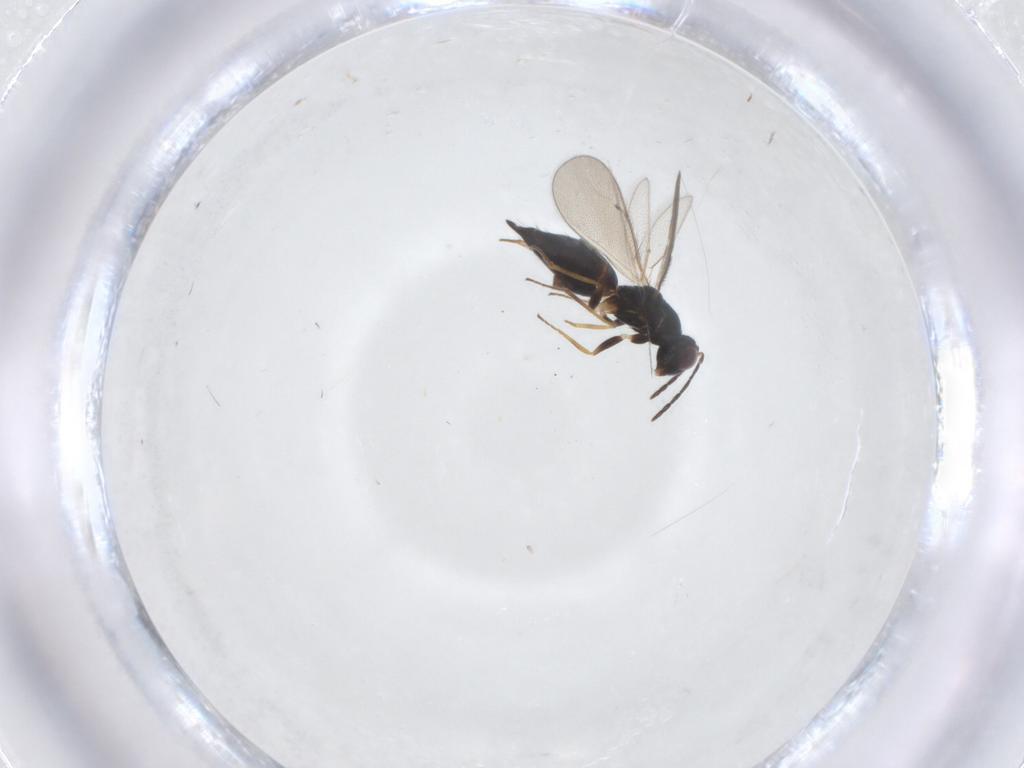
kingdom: Animalia
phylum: Arthropoda
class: Insecta
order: Hymenoptera
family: Eulophidae
